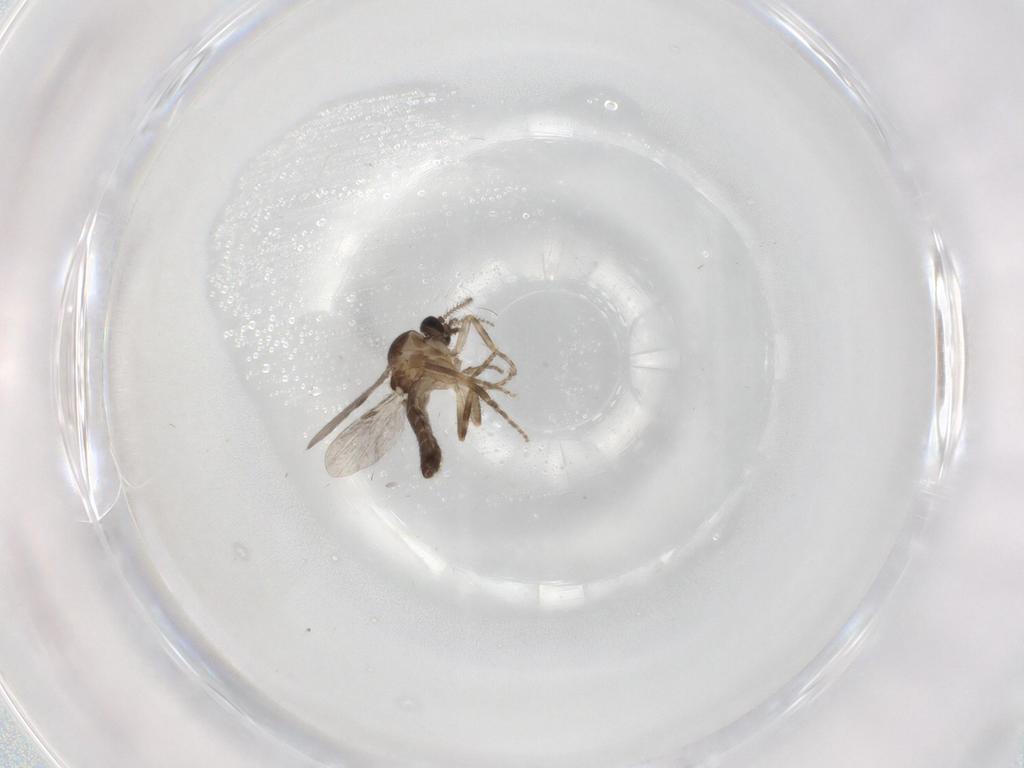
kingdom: Animalia
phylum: Arthropoda
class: Insecta
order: Diptera
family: Ceratopogonidae
